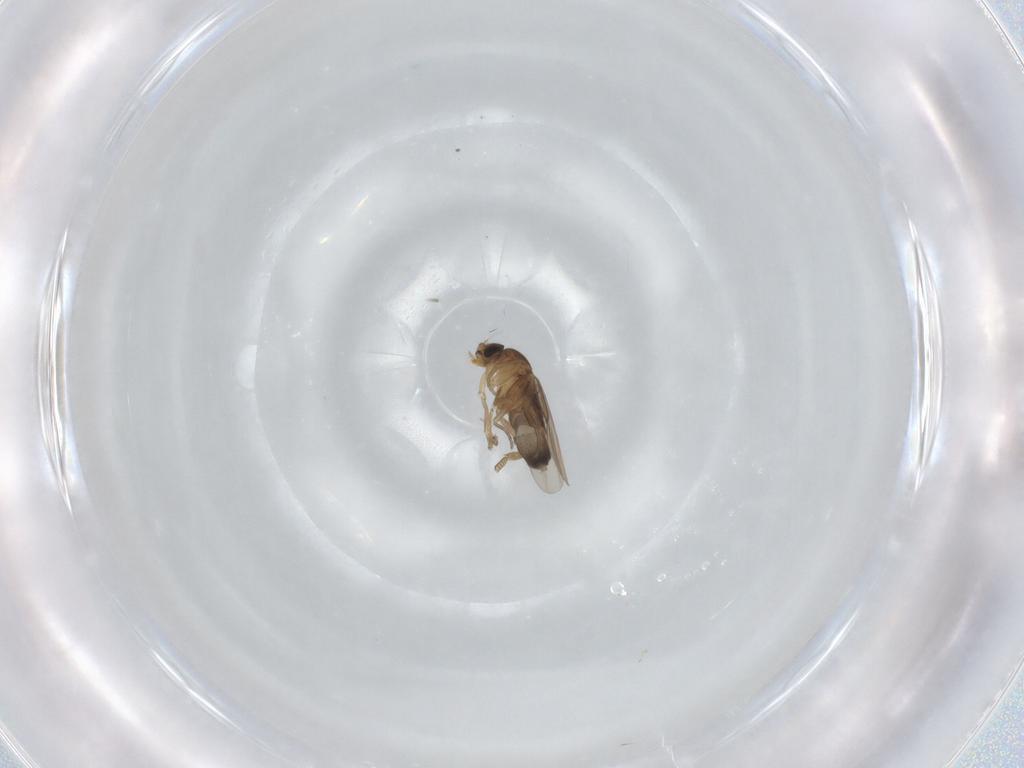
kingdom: Animalia
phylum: Arthropoda
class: Insecta
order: Diptera
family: Phoridae
